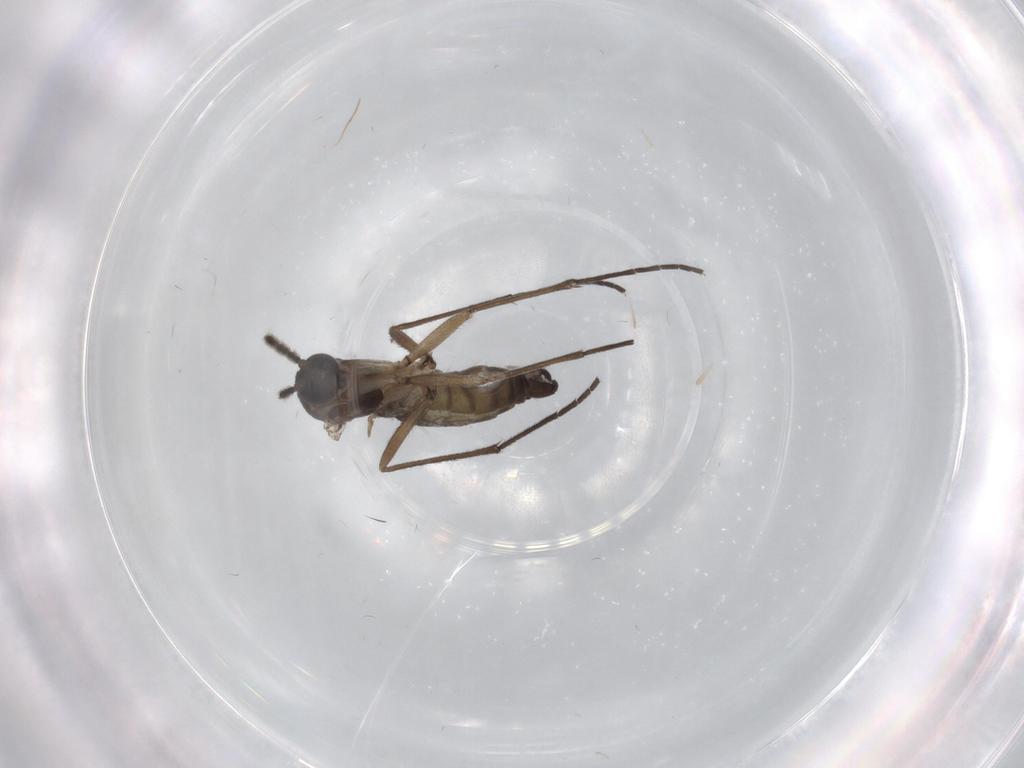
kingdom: Animalia
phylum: Arthropoda
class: Insecta
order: Diptera
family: Sciaridae
